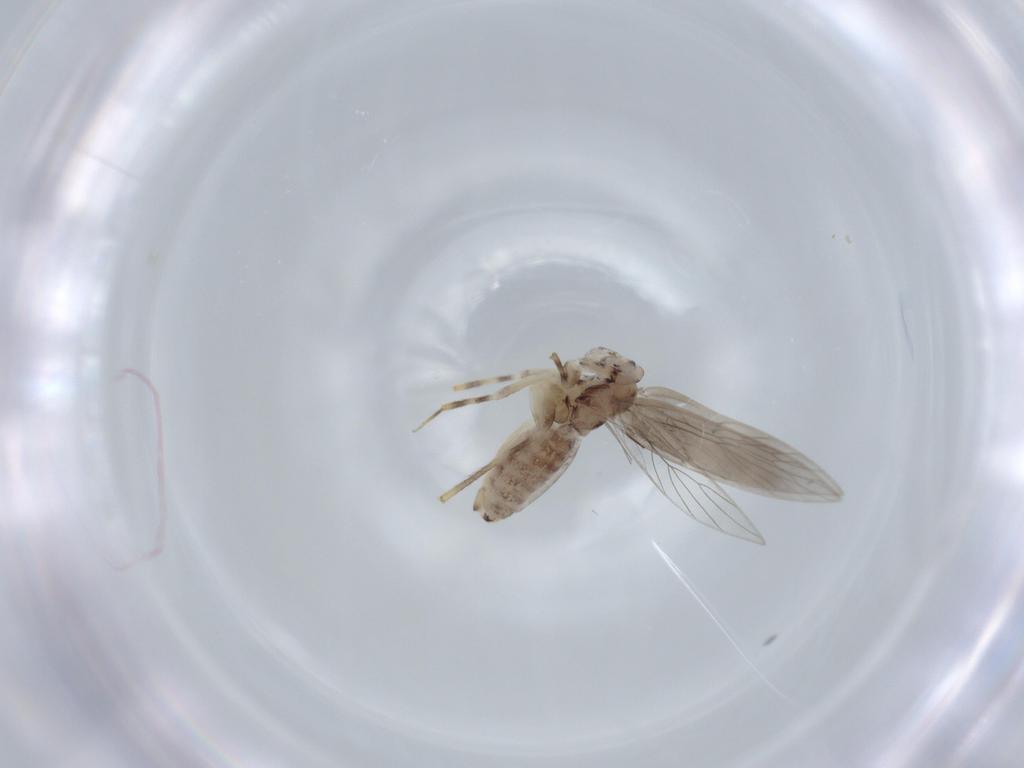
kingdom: Animalia
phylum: Arthropoda
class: Insecta
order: Psocodea
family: Lepidopsocidae
